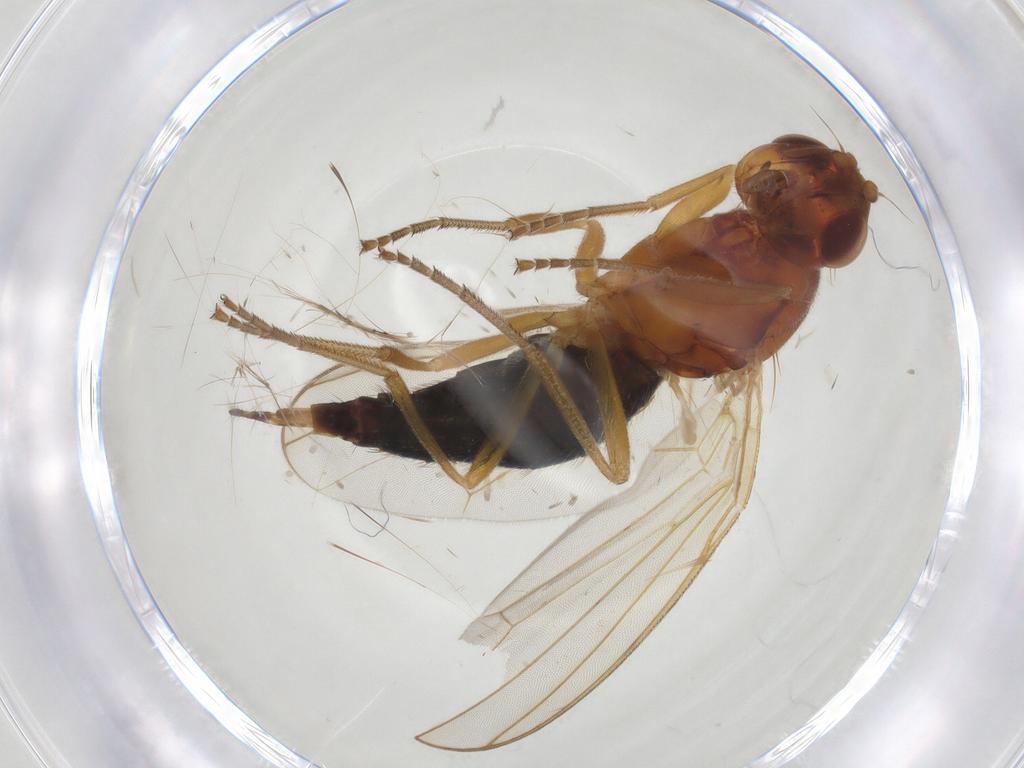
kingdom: Animalia
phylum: Arthropoda
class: Insecta
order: Diptera
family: Psilidae
